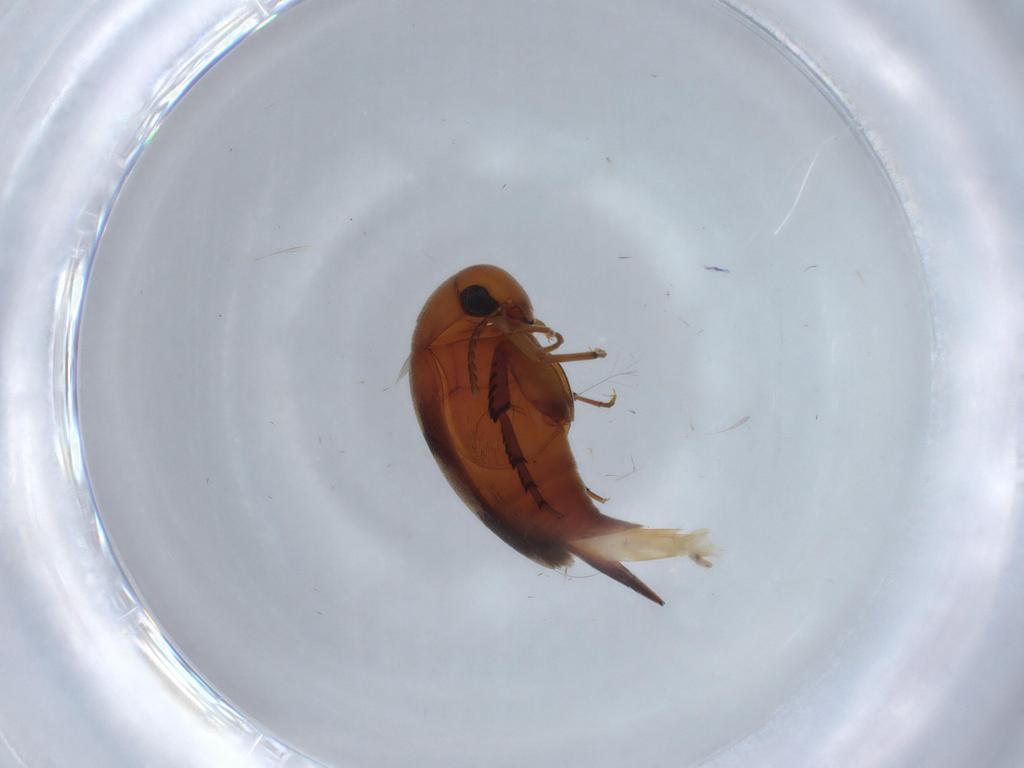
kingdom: Animalia
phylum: Arthropoda
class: Insecta
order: Coleoptera
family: Mordellidae
